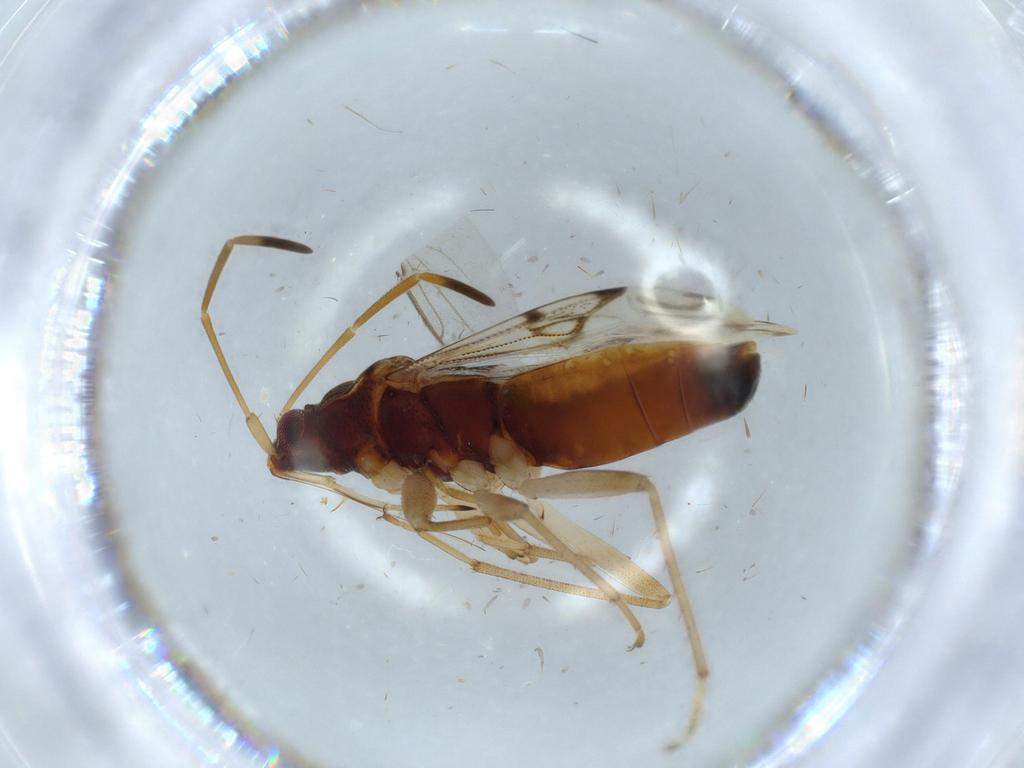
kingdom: Animalia
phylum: Arthropoda
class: Insecta
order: Hemiptera
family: Rhyparochromidae
